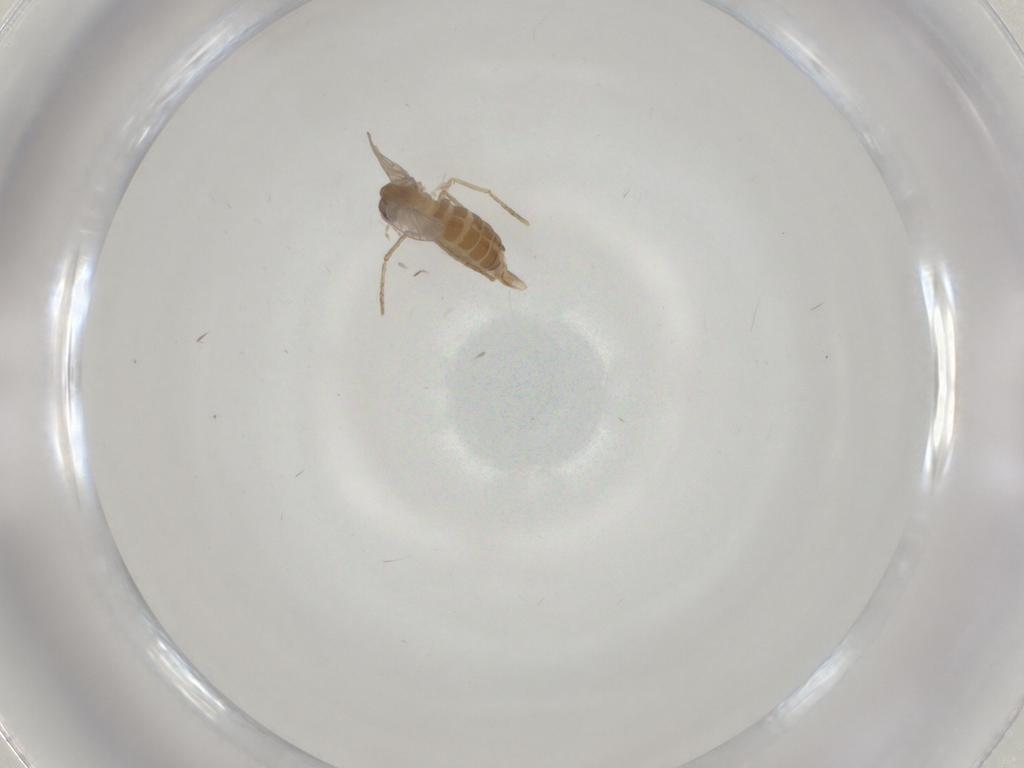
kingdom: Animalia
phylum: Arthropoda
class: Insecta
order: Diptera
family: Psychodidae
